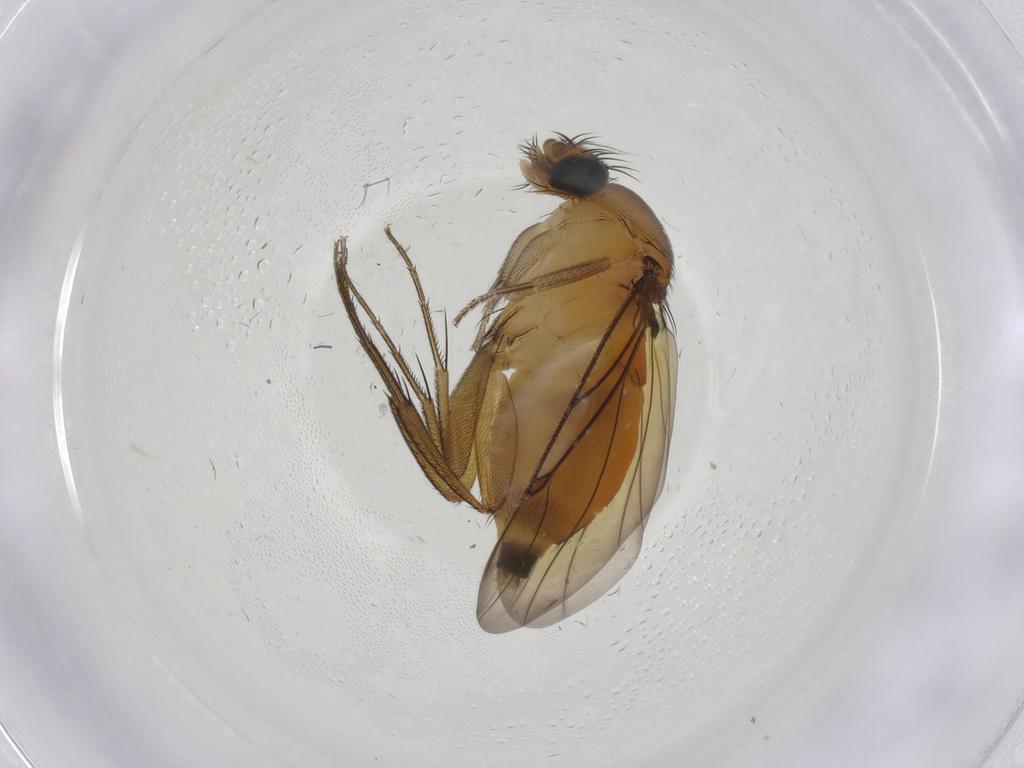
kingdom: Animalia
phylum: Arthropoda
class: Insecta
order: Diptera
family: Phoridae
